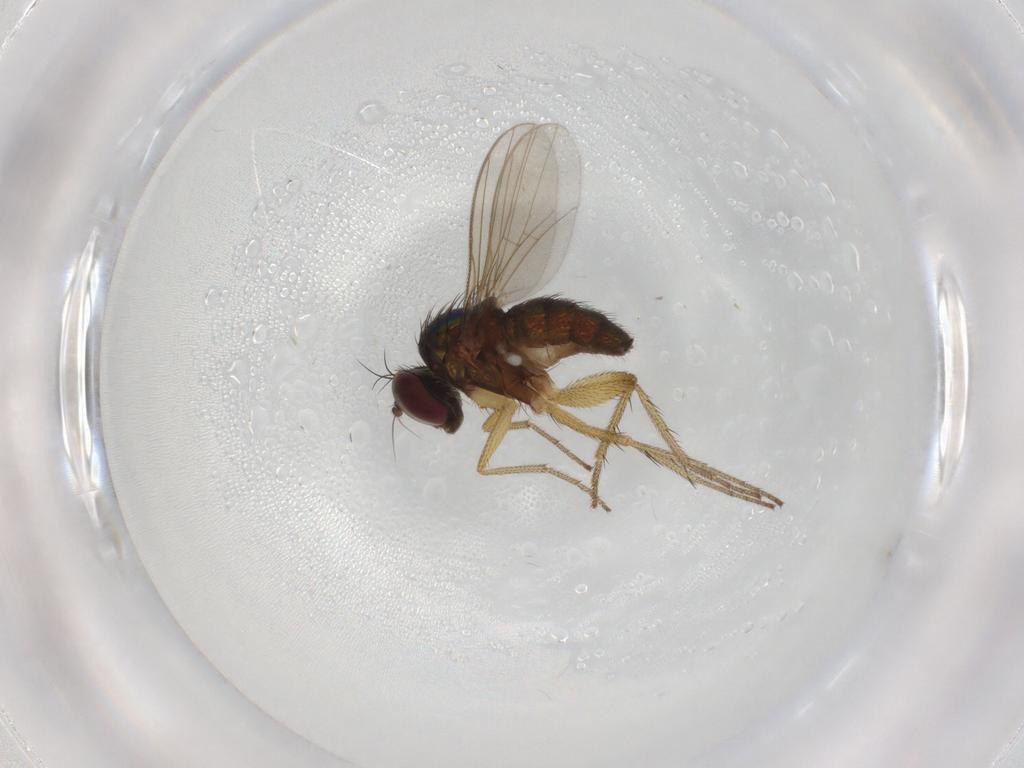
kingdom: Animalia
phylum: Arthropoda
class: Insecta
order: Diptera
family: Dolichopodidae
